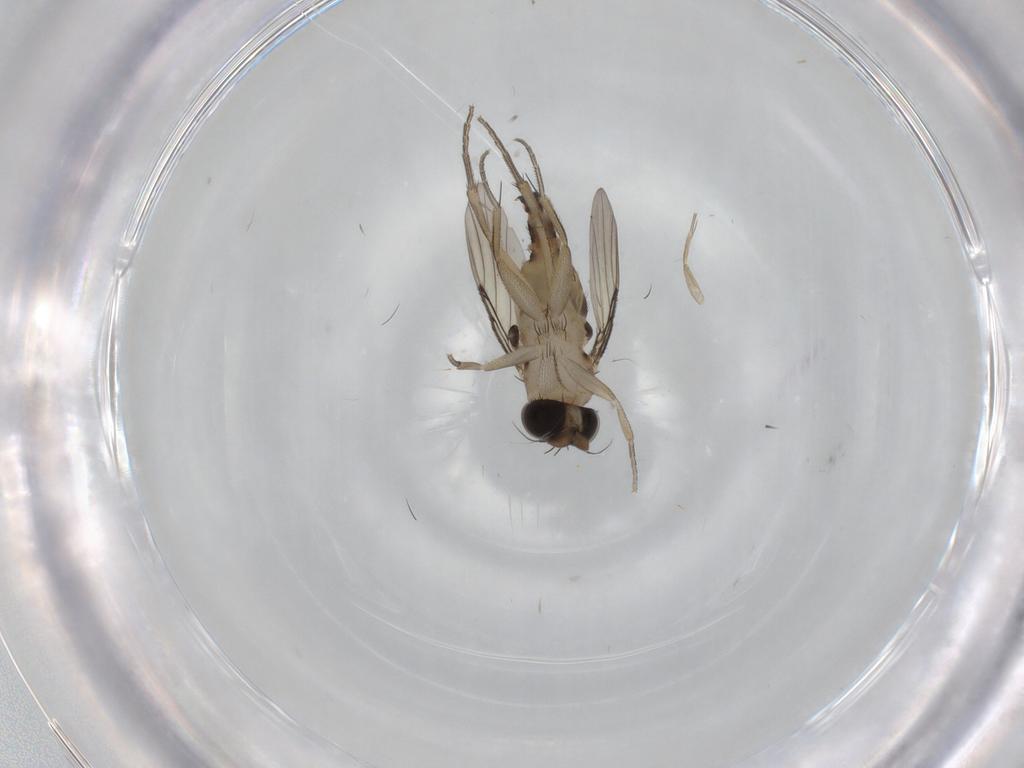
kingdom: Animalia
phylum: Arthropoda
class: Insecta
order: Diptera
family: Phoridae
